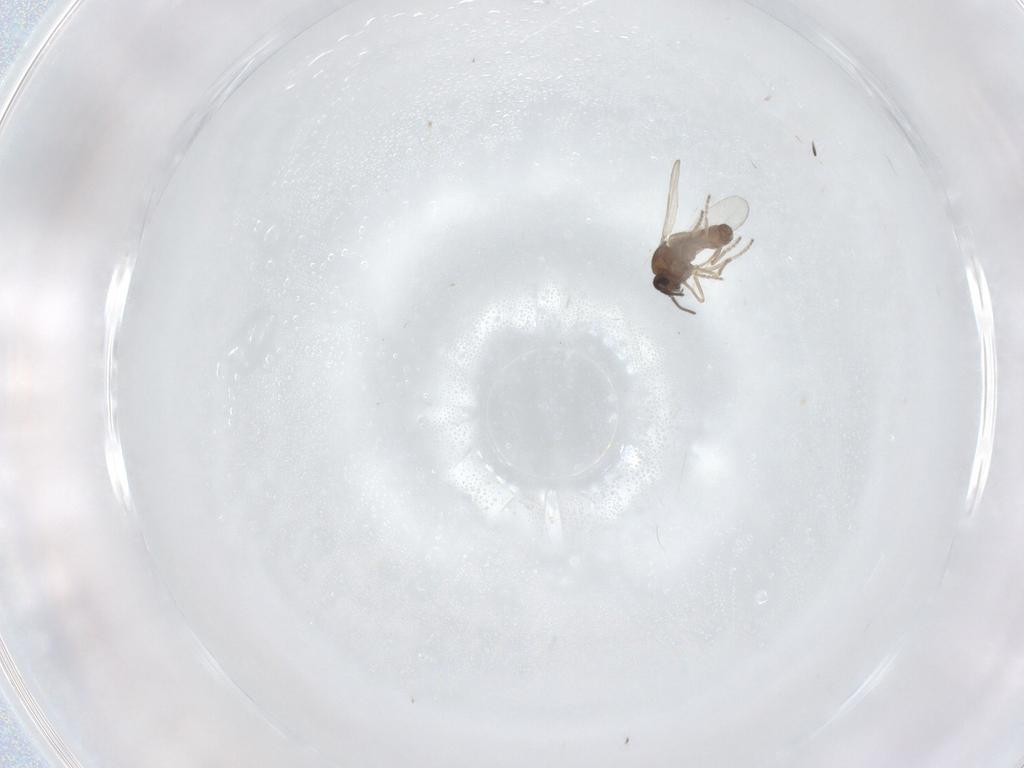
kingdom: Animalia
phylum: Arthropoda
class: Insecta
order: Diptera
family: Ceratopogonidae
